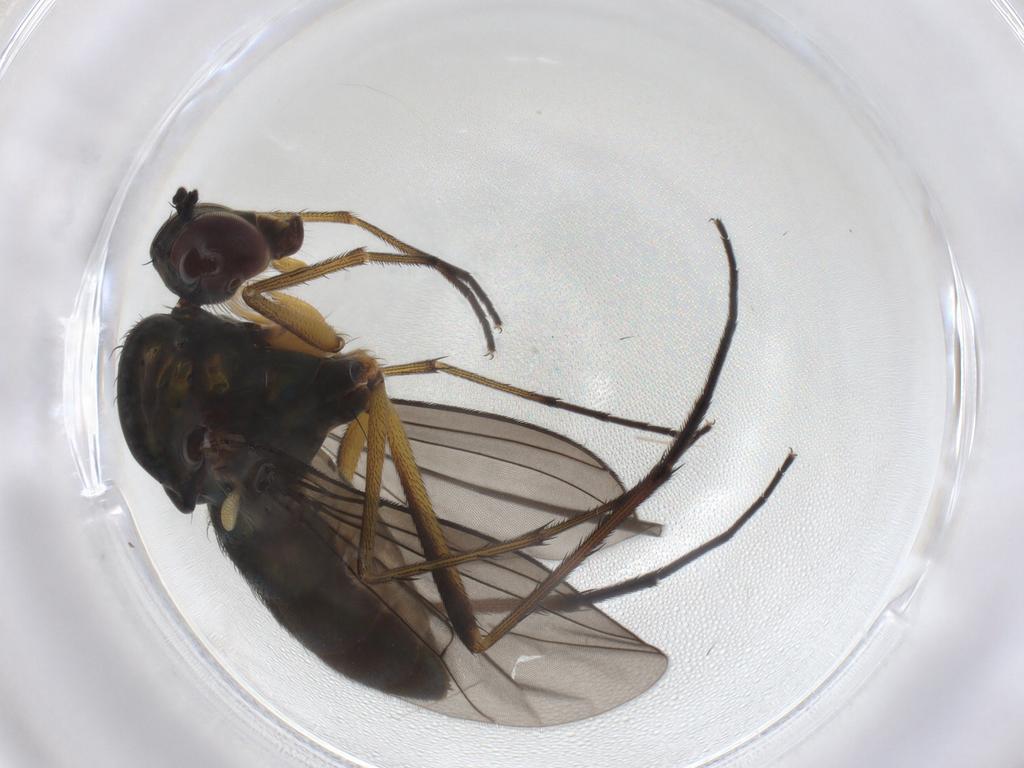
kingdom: Animalia
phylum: Arthropoda
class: Insecta
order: Diptera
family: Dolichopodidae
